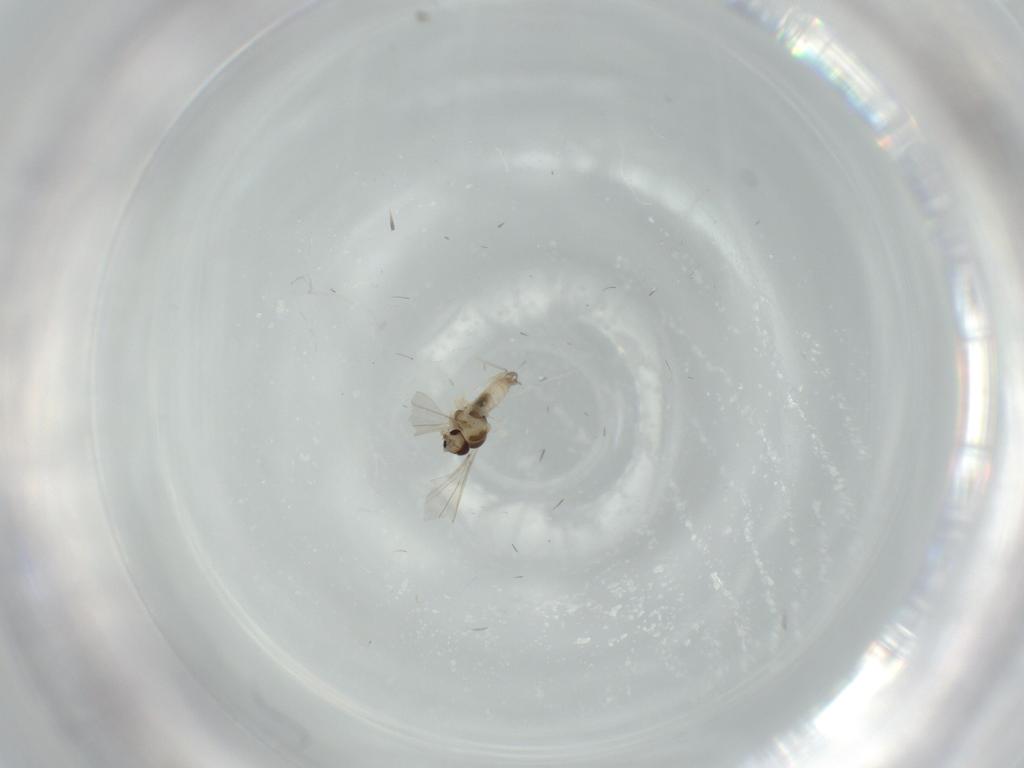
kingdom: Animalia
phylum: Arthropoda
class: Insecta
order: Diptera
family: Cecidomyiidae
